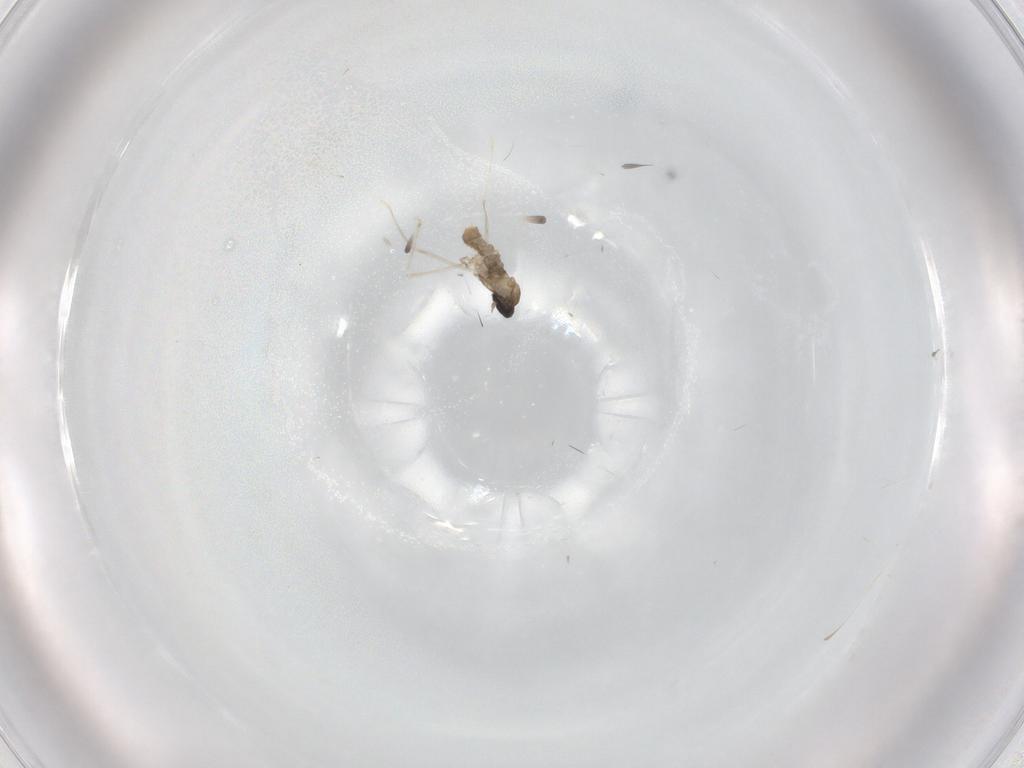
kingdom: Animalia
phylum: Arthropoda
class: Insecta
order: Diptera
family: Cecidomyiidae
